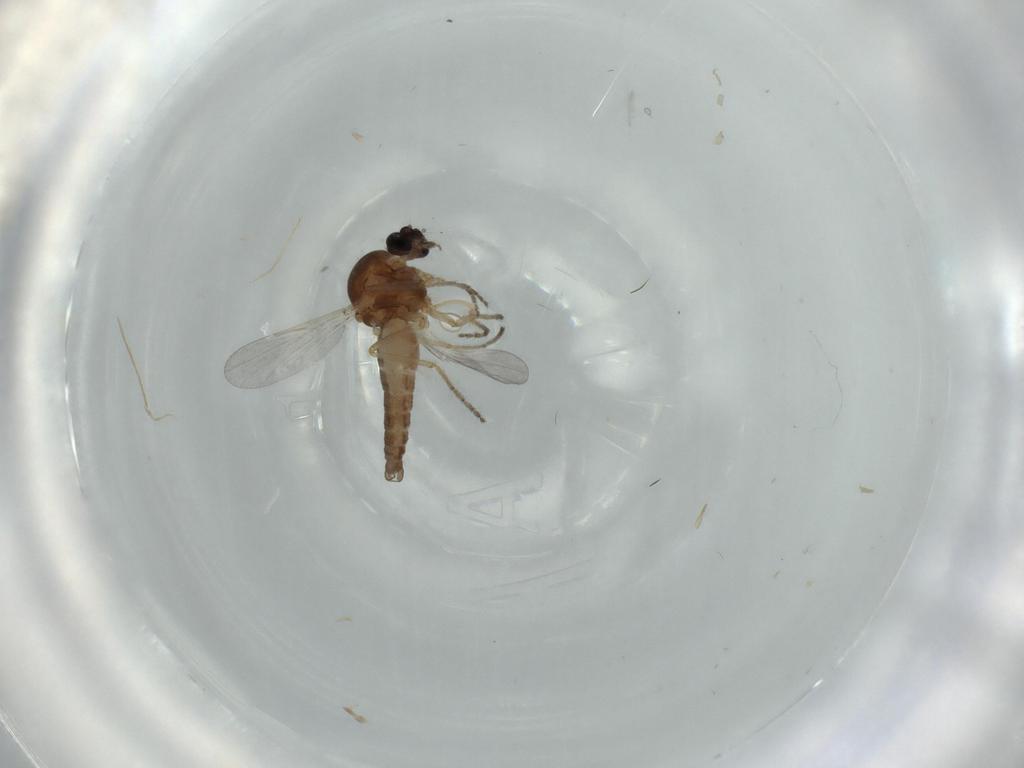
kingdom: Animalia
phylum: Arthropoda
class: Insecta
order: Diptera
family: Ceratopogonidae
